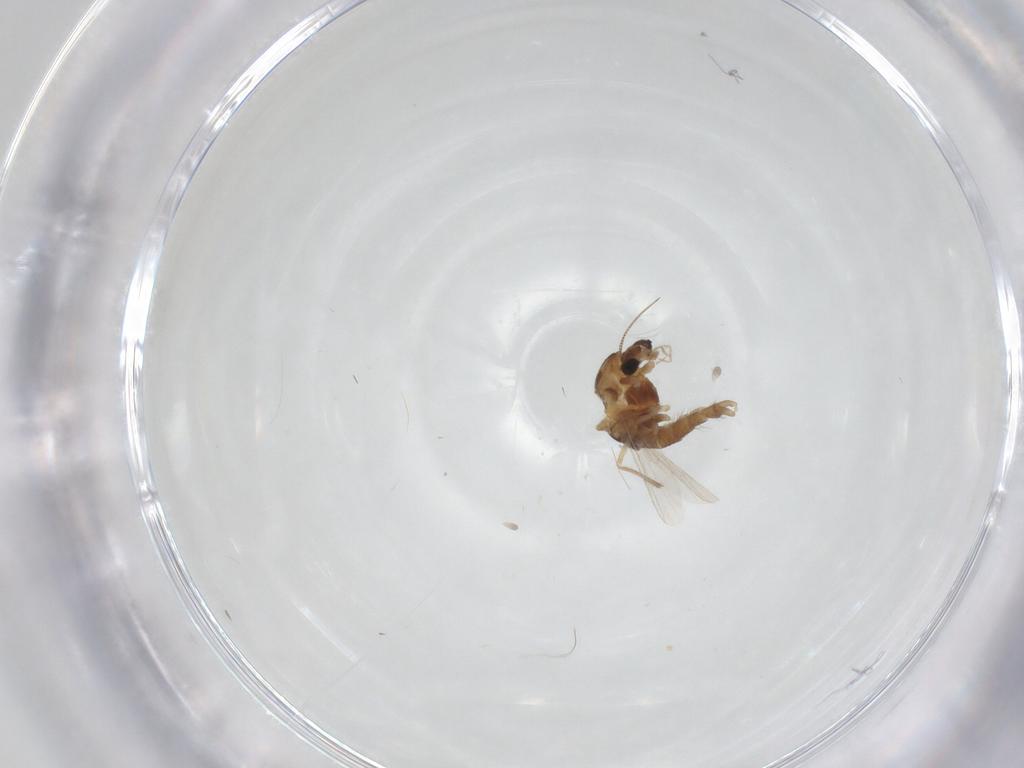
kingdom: Animalia
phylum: Arthropoda
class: Insecta
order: Diptera
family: Chironomidae
